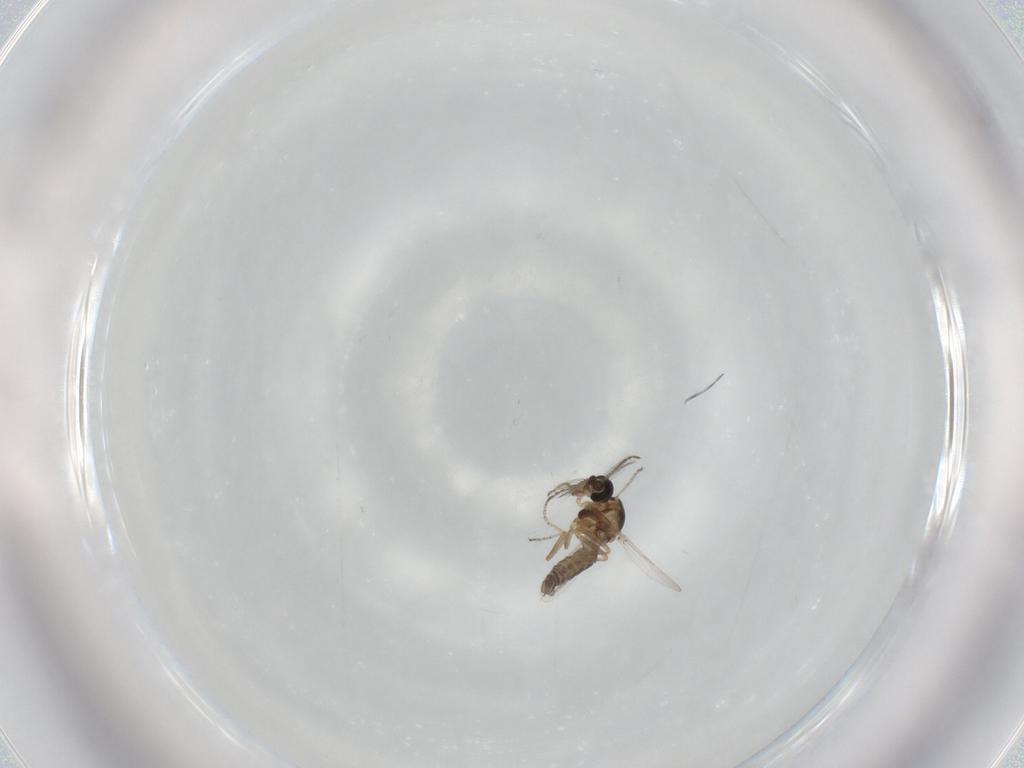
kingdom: Animalia
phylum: Arthropoda
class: Insecta
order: Diptera
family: Ceratopogonidae
